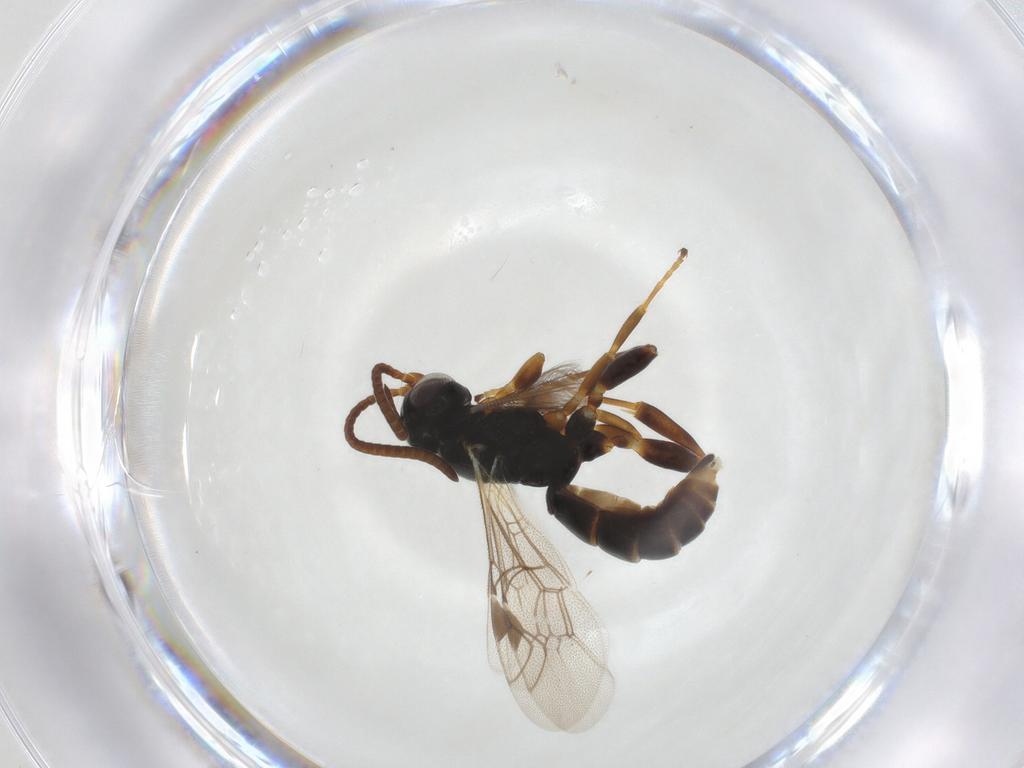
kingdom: Animalia
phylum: Arthropoda
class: Insecta
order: Hymenoptera
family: Ichneumonidae
